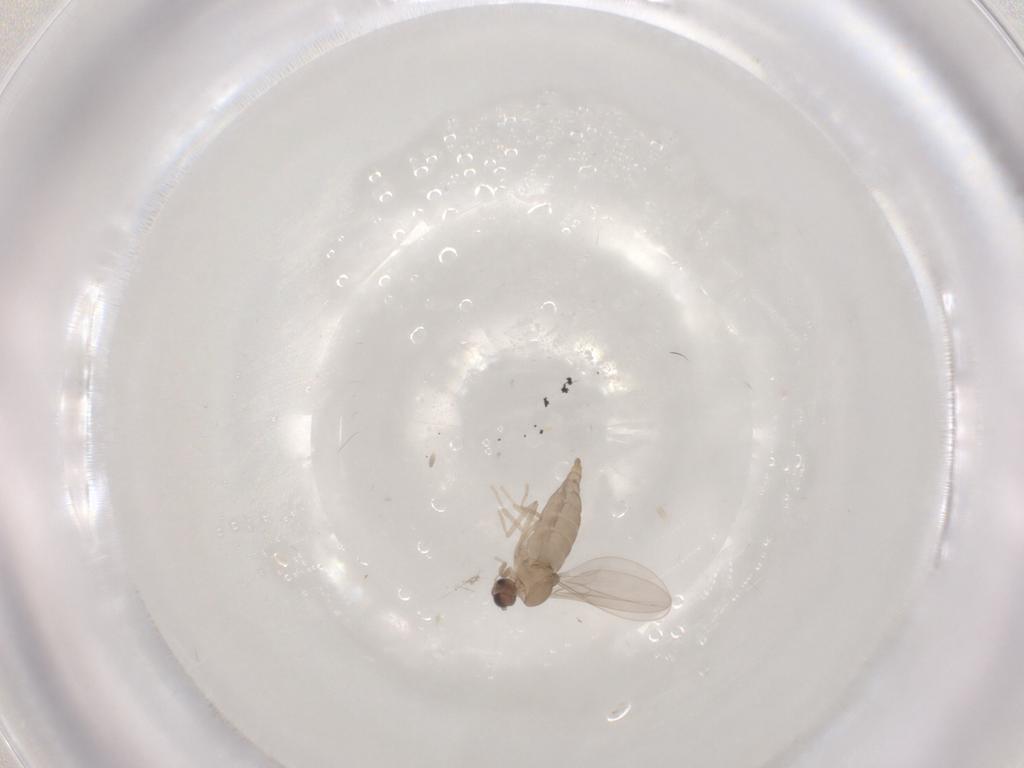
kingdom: Animalia
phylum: Arthropoda
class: Insecta
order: Diptera
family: Cecidomyiidae
